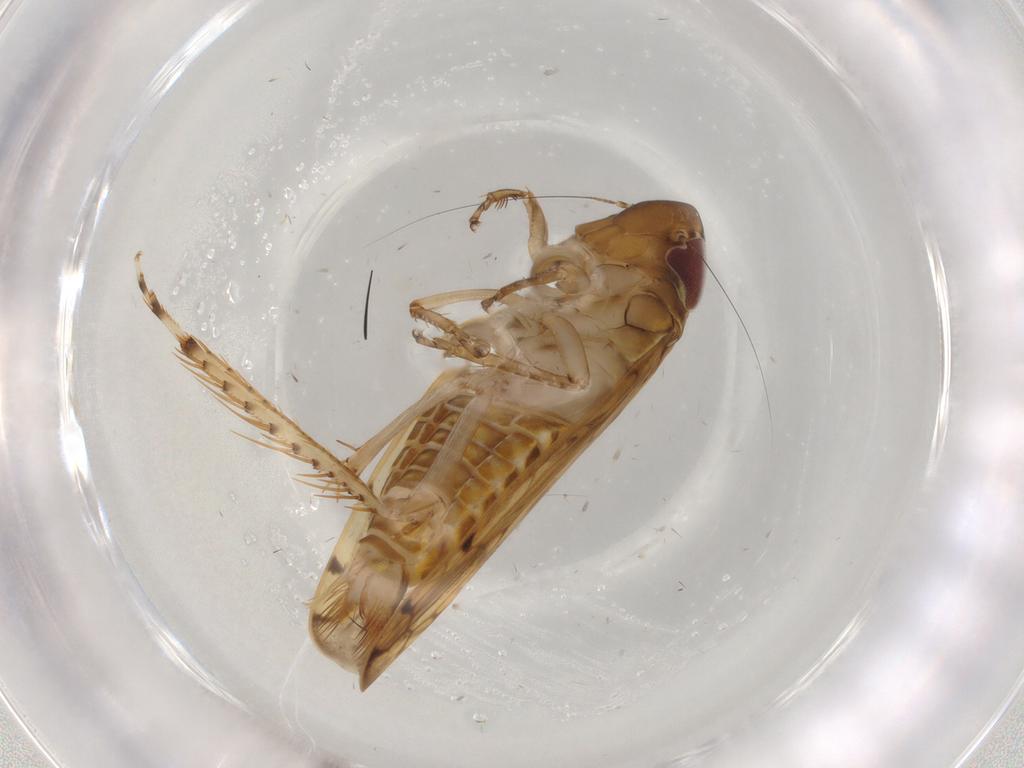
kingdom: Animalia
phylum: Arthropoda
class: Insecta
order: Hemiptera
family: Cicadellidae
